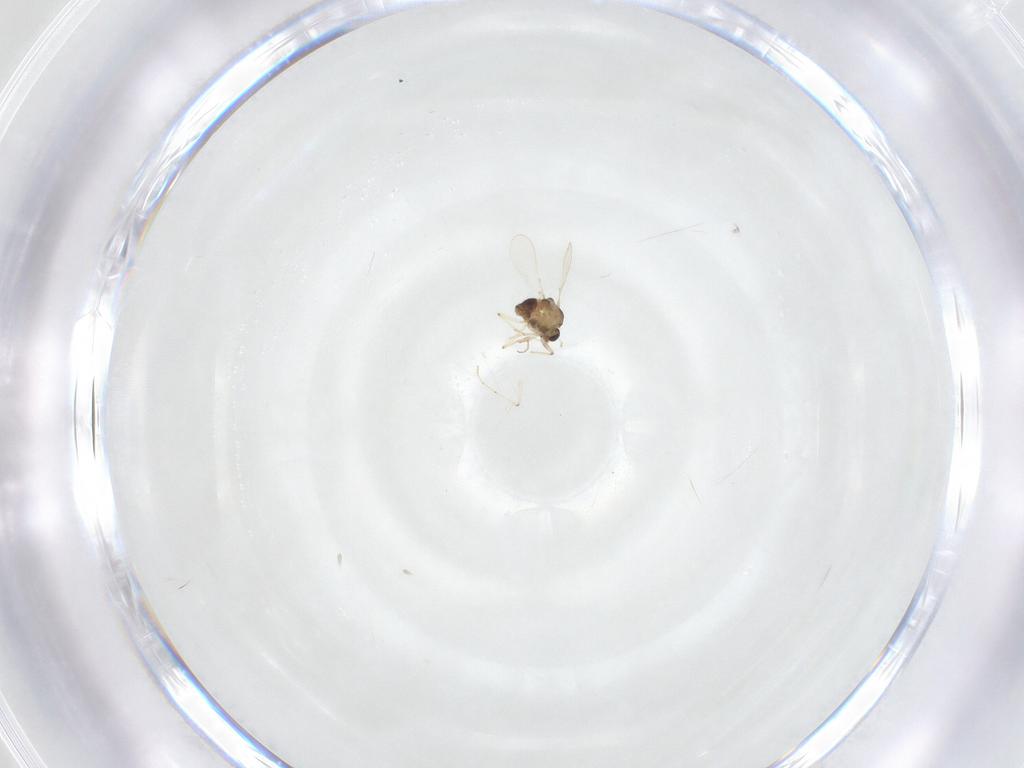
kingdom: Animalia
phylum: Arthropoda
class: Insecta
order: Diptera
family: Chironomidae
